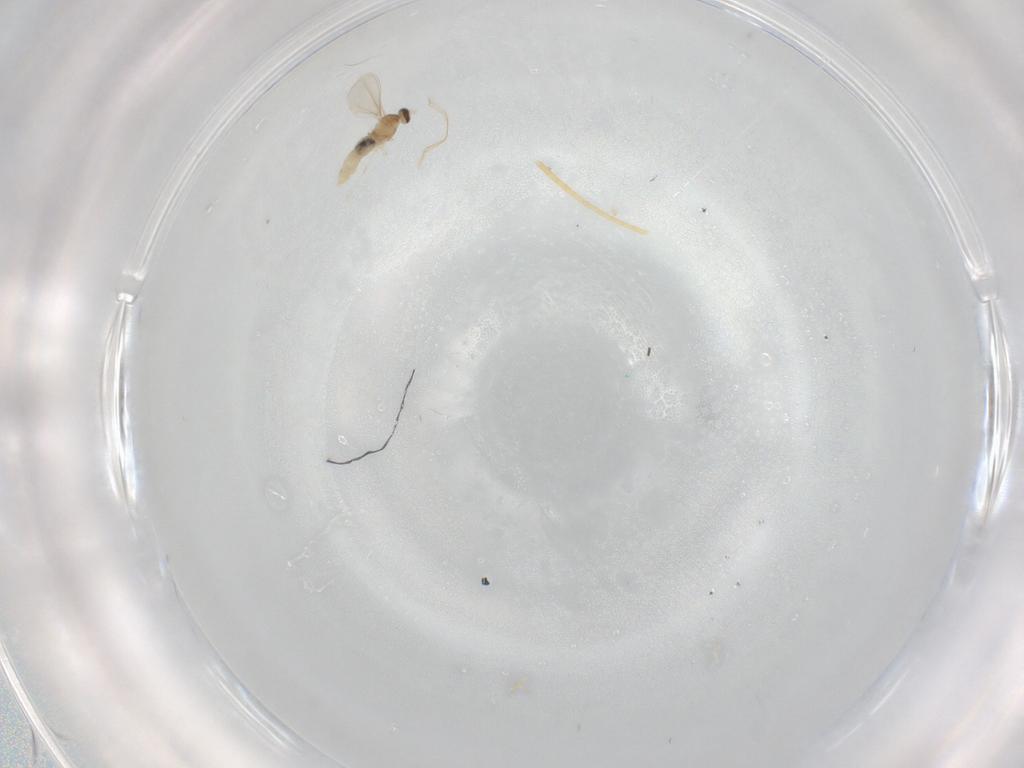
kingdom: Animalia
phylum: Arthropoda
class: Insecta
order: Diptera
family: Cecidomyiidae
